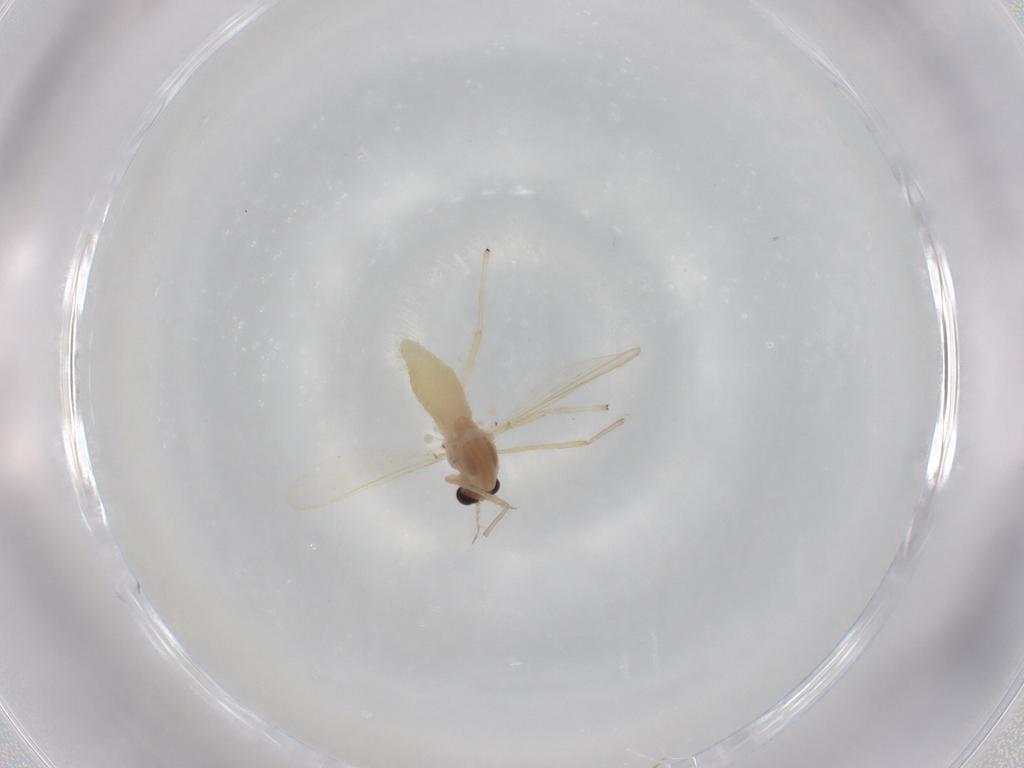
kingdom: Animalia
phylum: Arthropoda
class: Insecta
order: Diptera
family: Chironomidae
